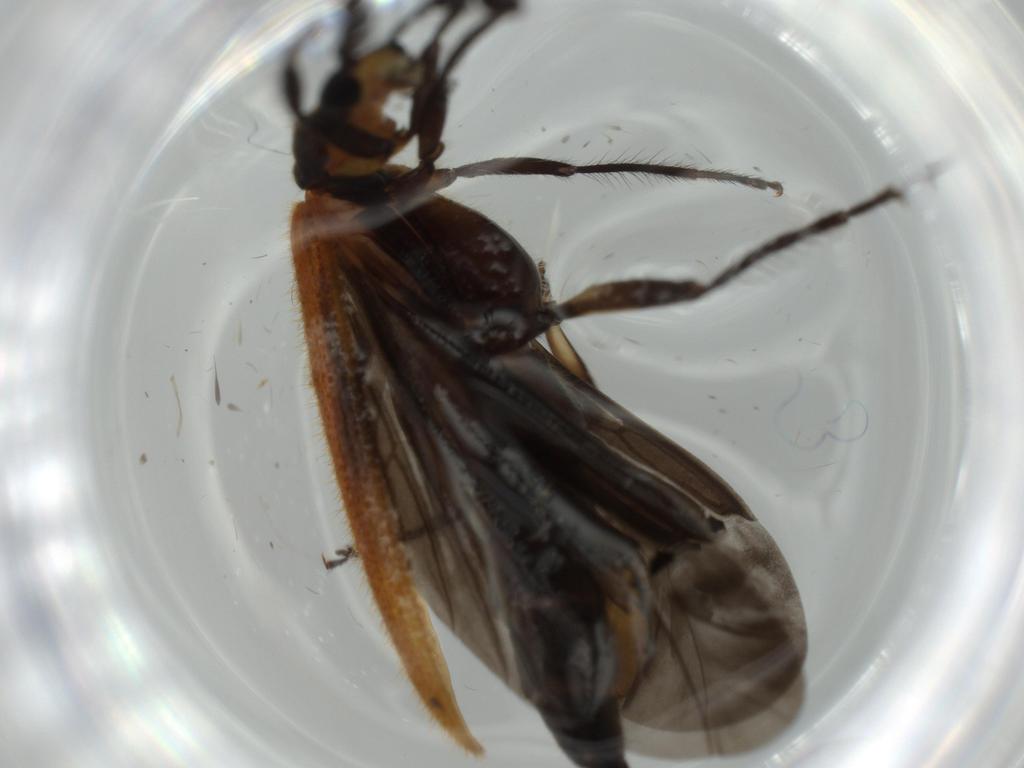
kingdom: Animalia
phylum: Arthropoda
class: Insecta
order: Coleoptera
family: Cleridae
